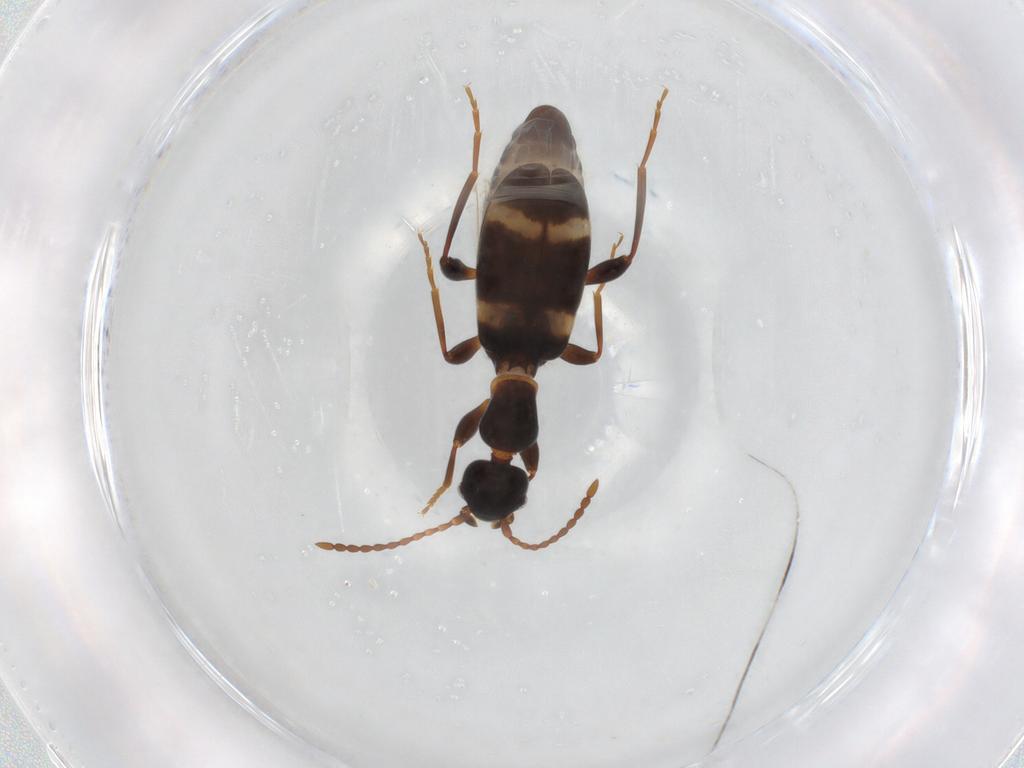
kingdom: Animalia
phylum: Arthropoda
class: Insecta
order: Coleoptera
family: Anthicidae
